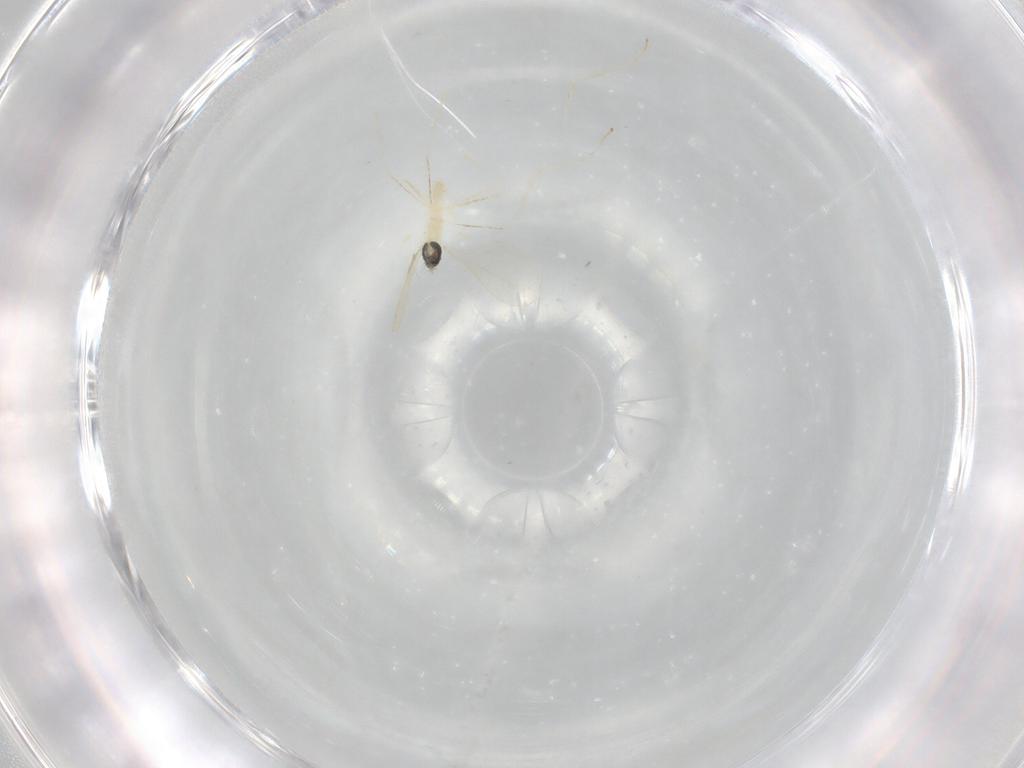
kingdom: Animalia
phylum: Arthropoda
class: Insecta
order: Diptera
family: Cecidomyiidae
